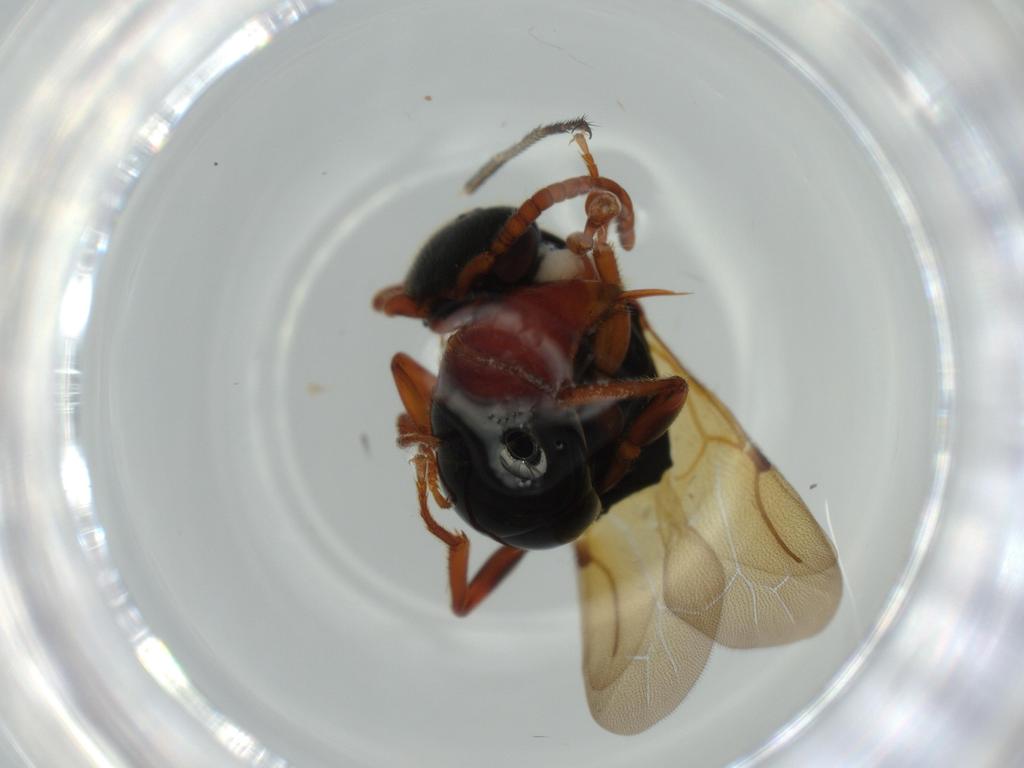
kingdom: Animalia
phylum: Arthropoda
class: Insecta
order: Hymenoptera
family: Bethylidae
